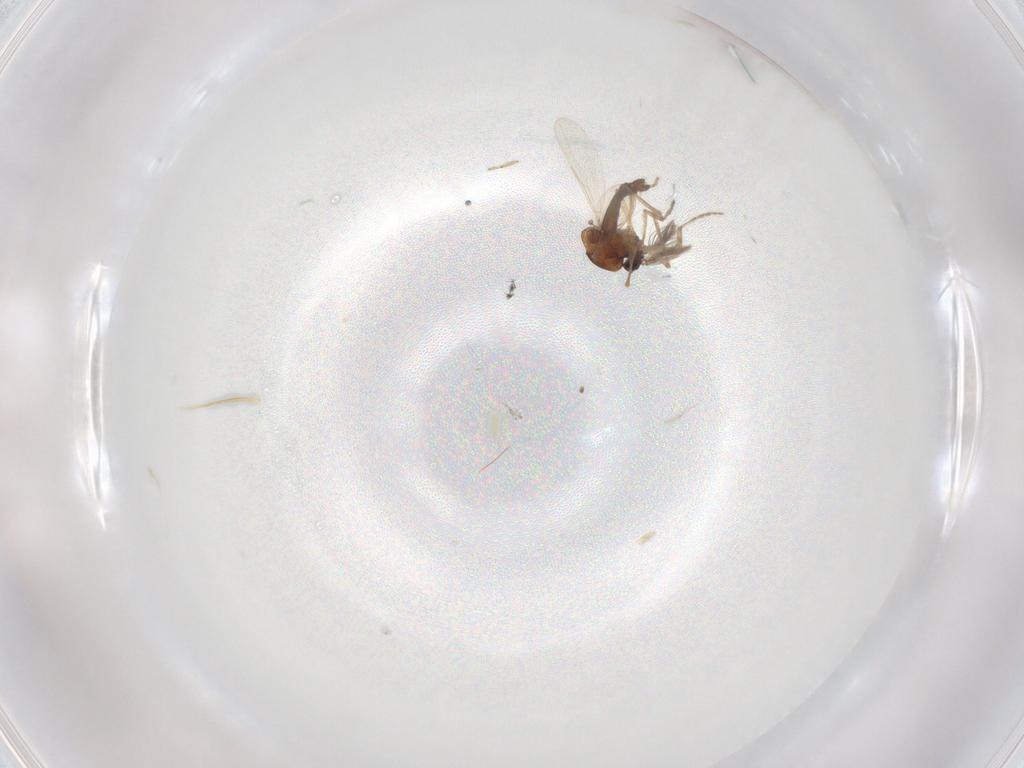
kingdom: Animalia
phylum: Arthropoda
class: Insecta
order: Diptera
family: Ceratopogonidae
